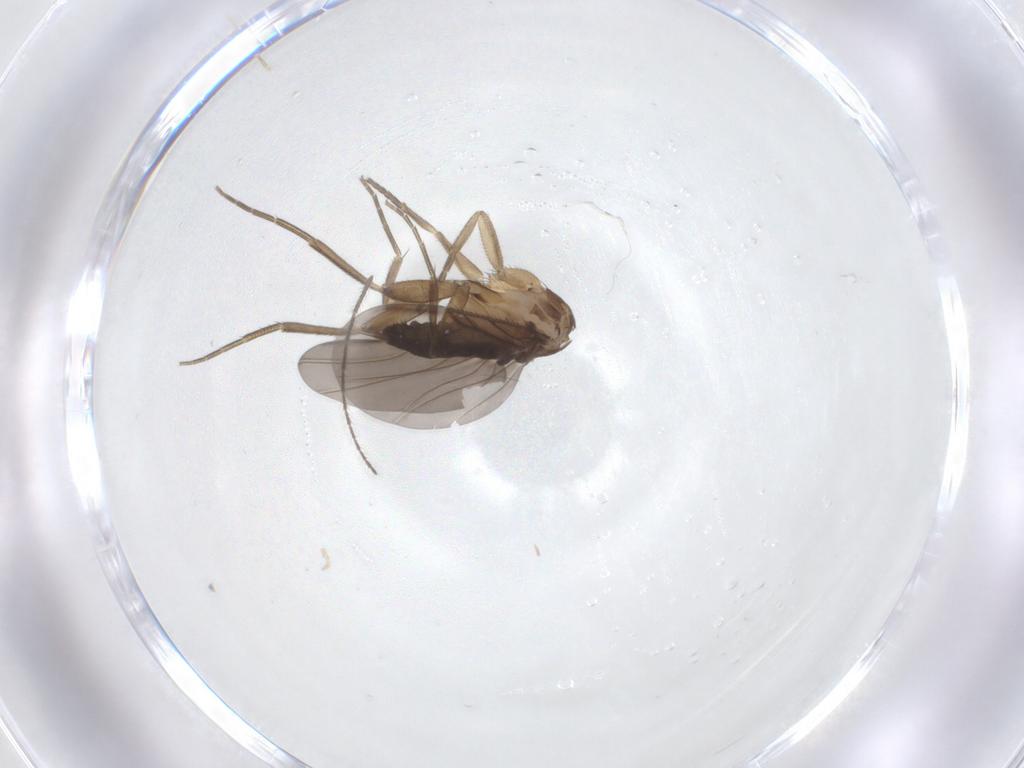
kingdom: Animalia
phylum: Arthropoda
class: Insecta
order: Diptera
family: Phoridae
